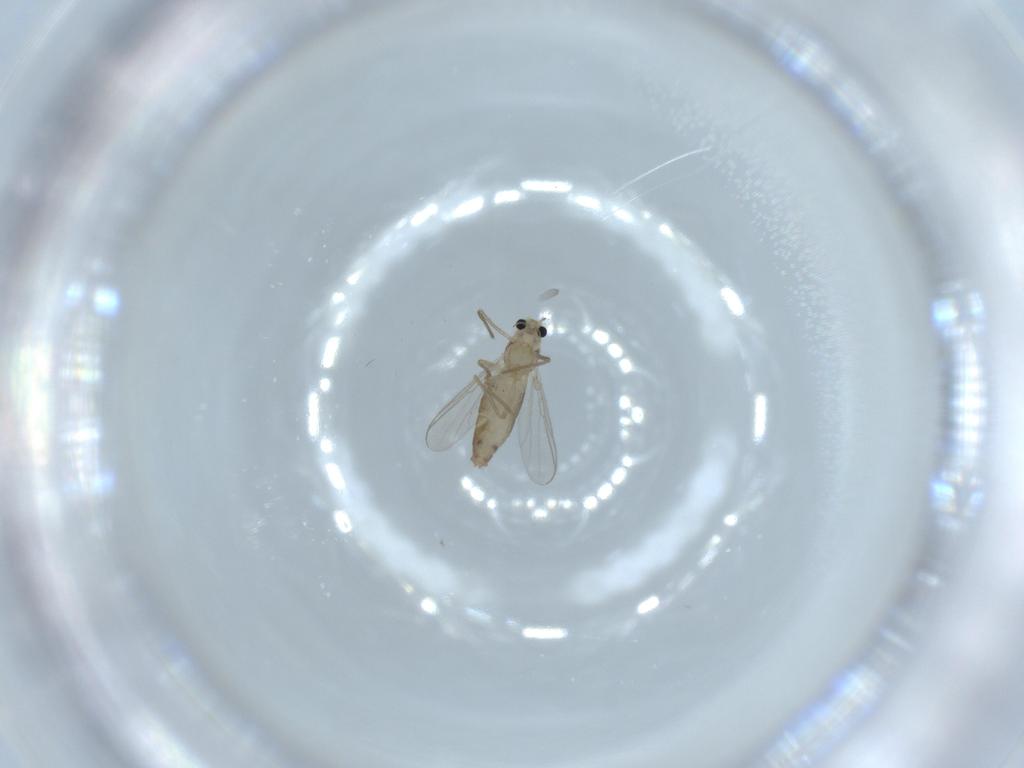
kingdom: Animalia
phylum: Arthropoda
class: Insecta
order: Diptera
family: Chironomidae
